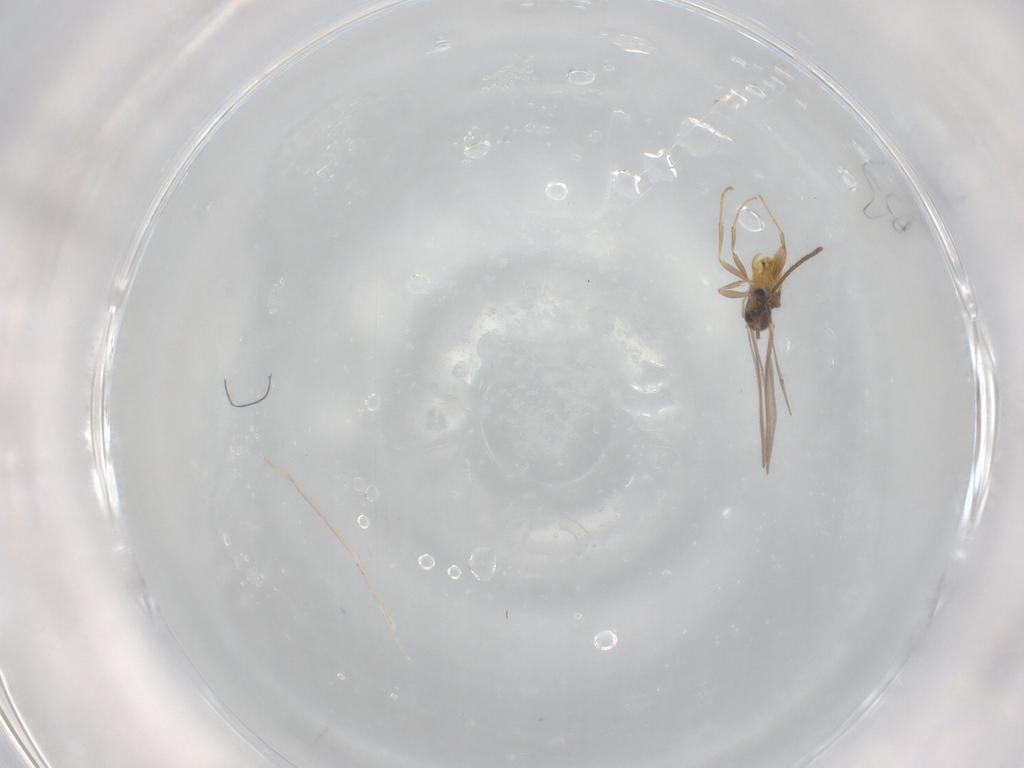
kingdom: Animalia
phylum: Arthropoda
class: Insecta
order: Hymenoptera
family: Formicidae
